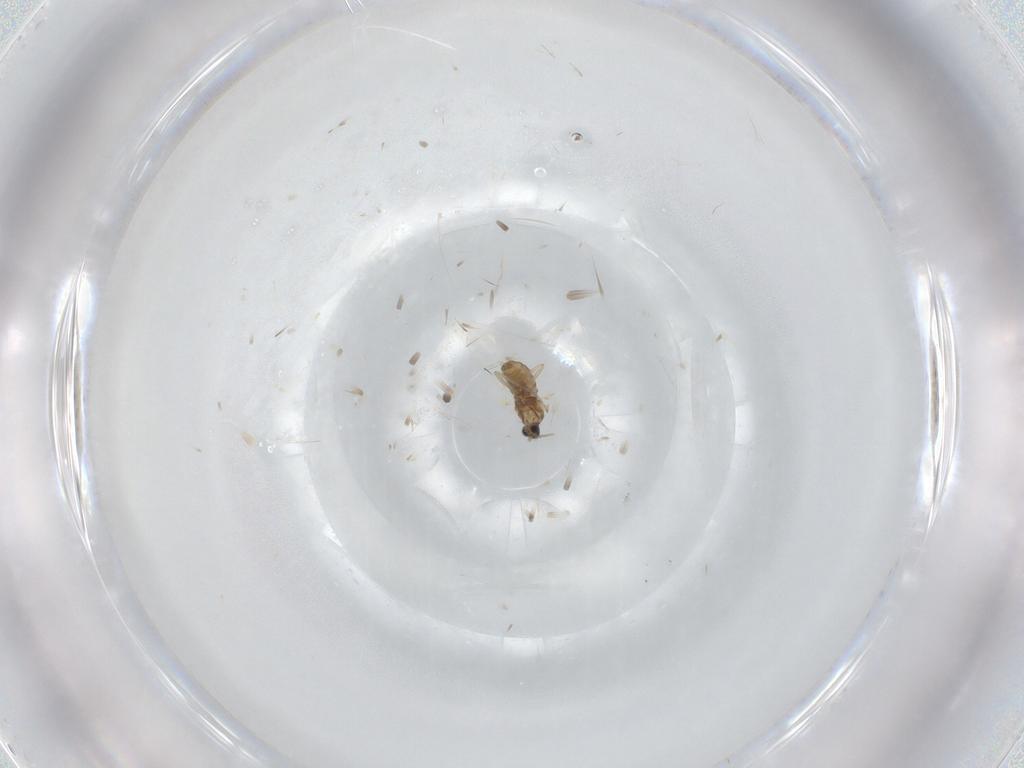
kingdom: Animalia
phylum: Arthropoda
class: Insecta
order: Diptera
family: Cecidomyiidae
